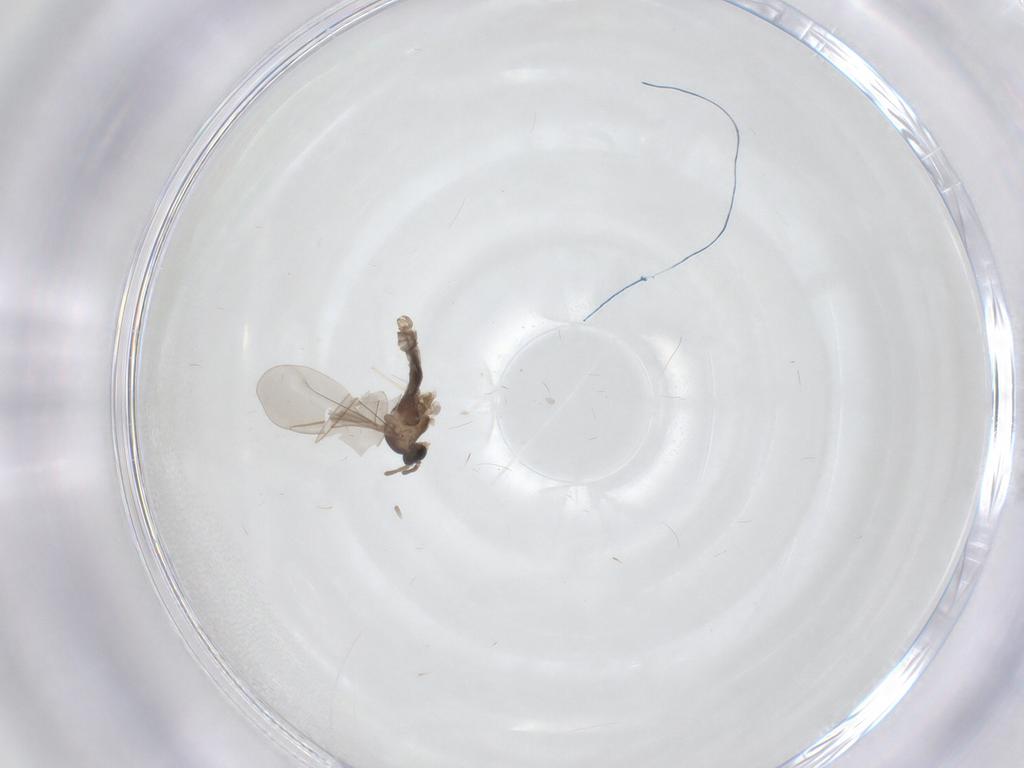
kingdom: Animalia
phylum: Arthropoda
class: Insecta
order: Diptera
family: Cecidomyiidae
